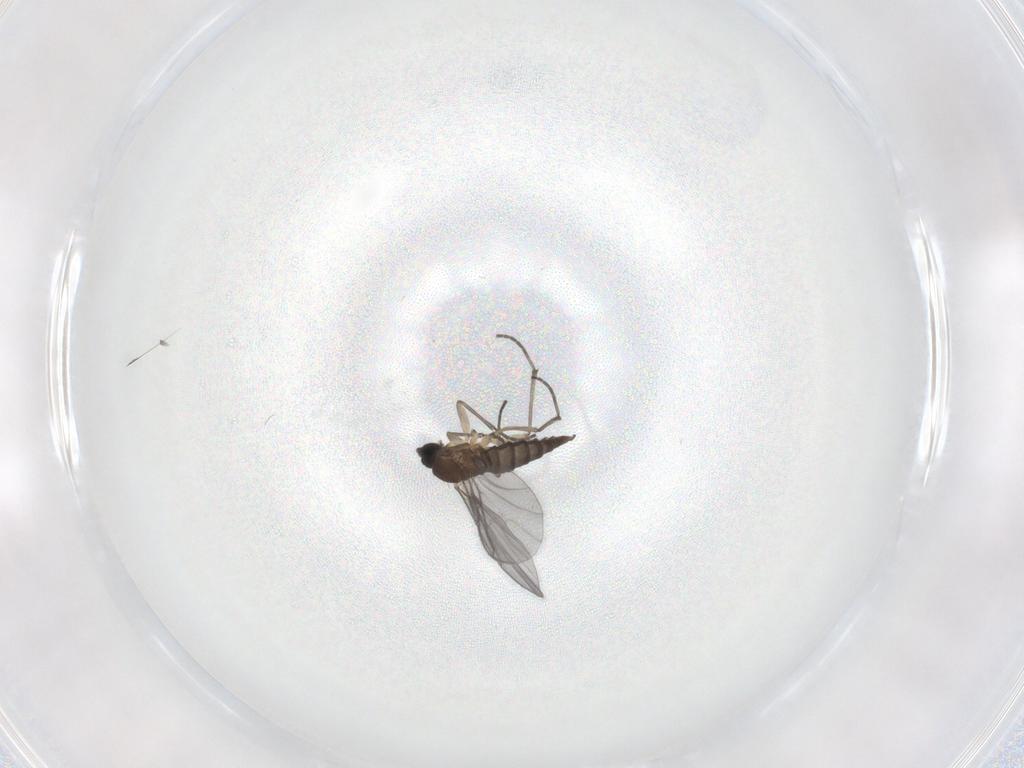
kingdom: Animalia
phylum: Arthropoda
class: Insecta
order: Diptera
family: Sciaridae
